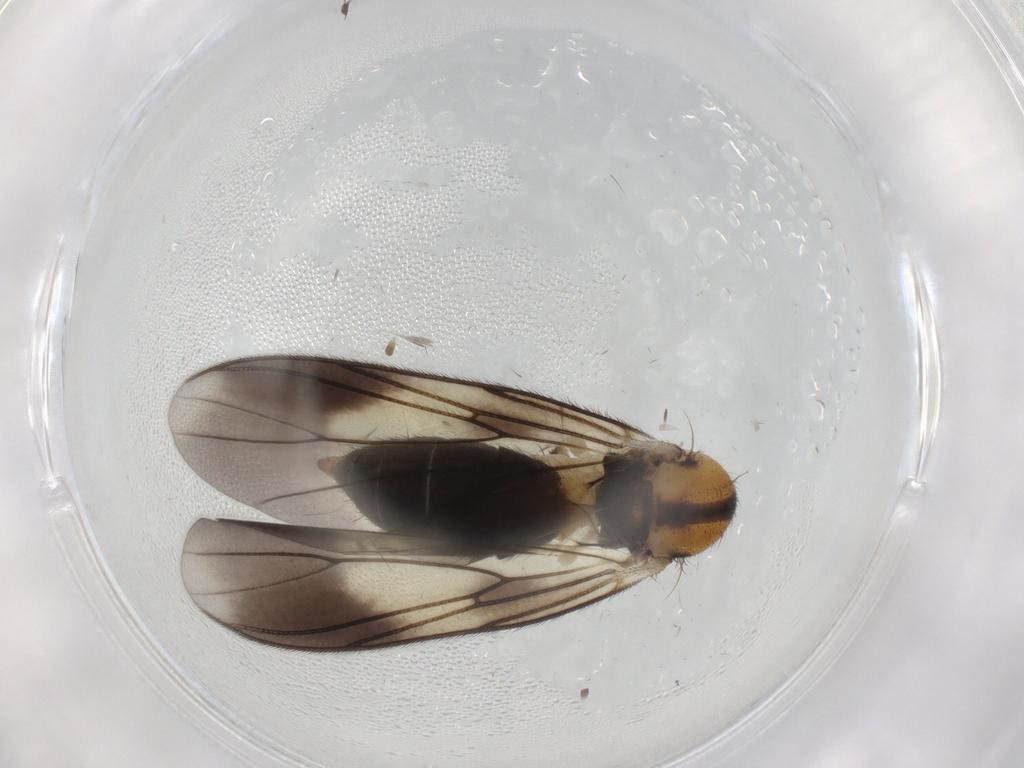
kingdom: Animalia
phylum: Arthropoda
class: Insecta
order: Diptera
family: Mycetophilidae
